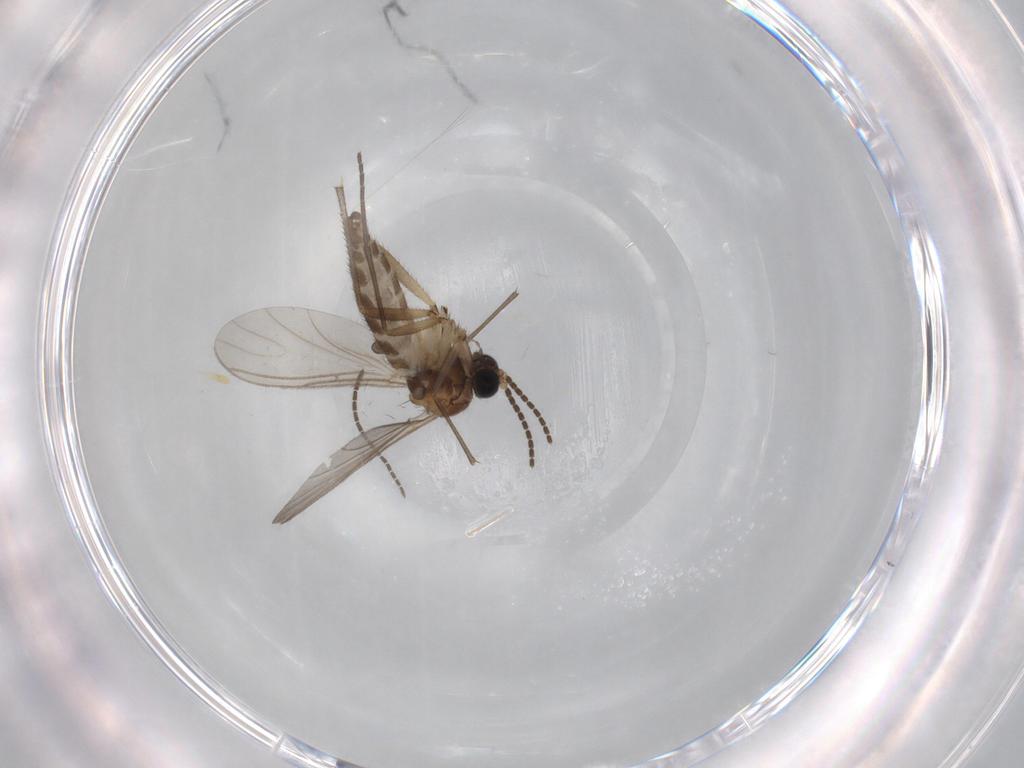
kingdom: Animalia
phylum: Arthropoda
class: Insecta
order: Diptera
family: Sciaridae
